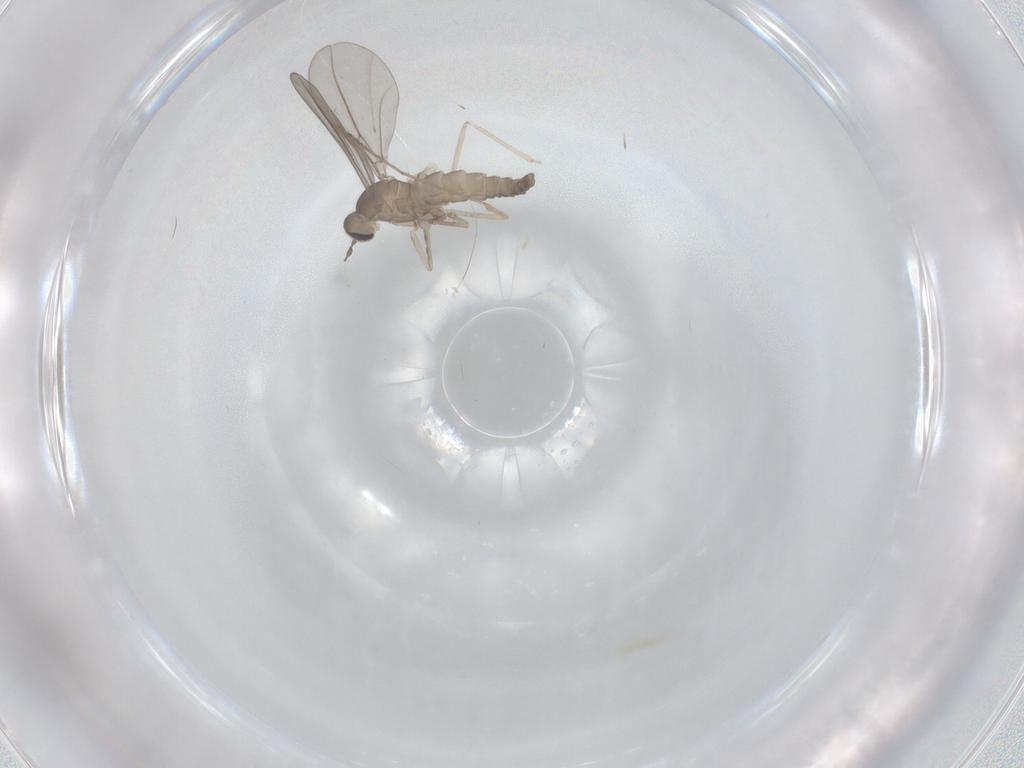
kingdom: Animalia
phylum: Arthropoda
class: Insecta
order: Diptera
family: Cecidomyiidae
